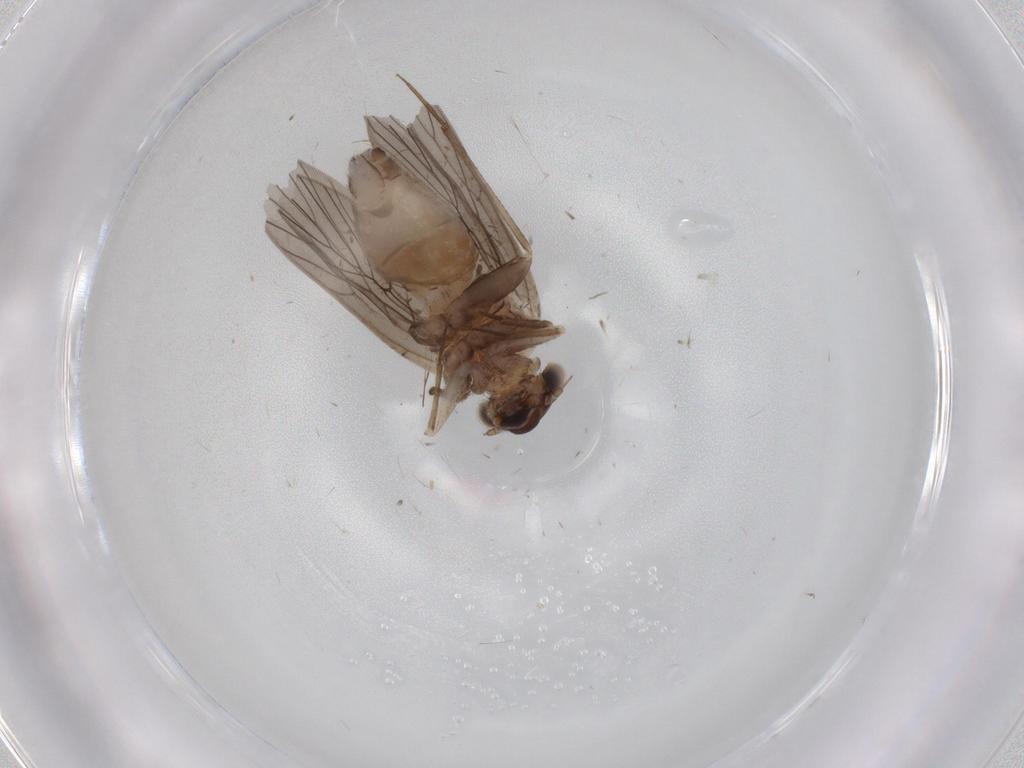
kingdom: Animalia
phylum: Arthropoda
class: Insecta
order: Psocodea
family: Lepidopsocidae
